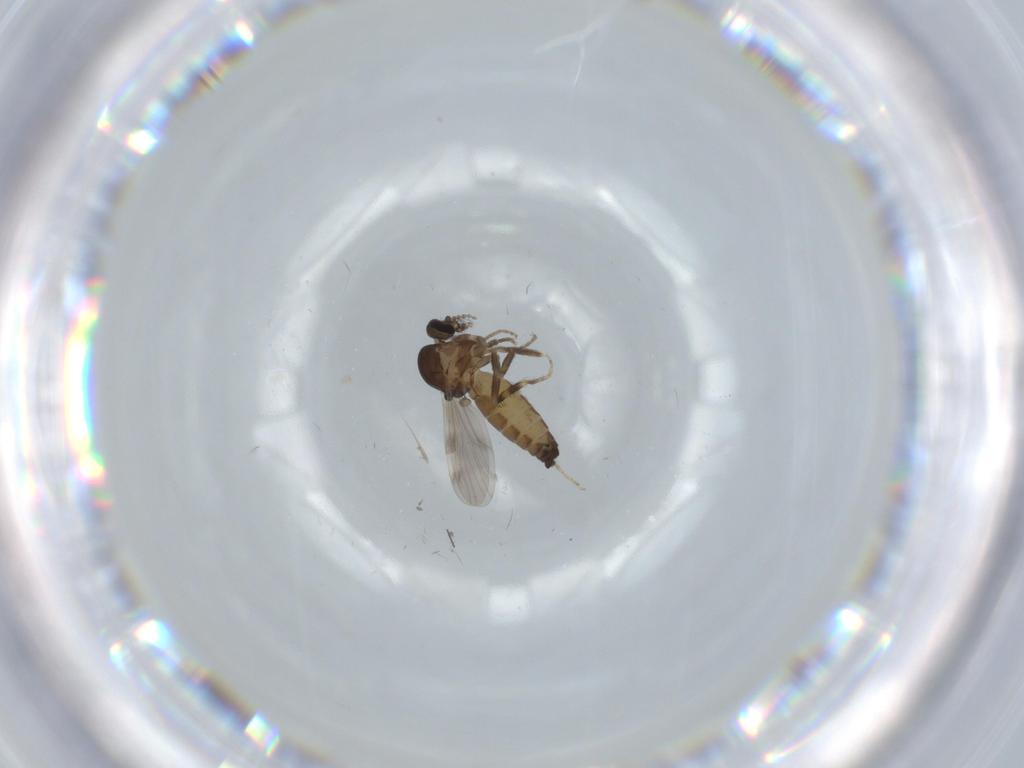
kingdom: Animalia
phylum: Arthropoda
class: Insecta
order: Diptera
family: Ceratopogonidae
